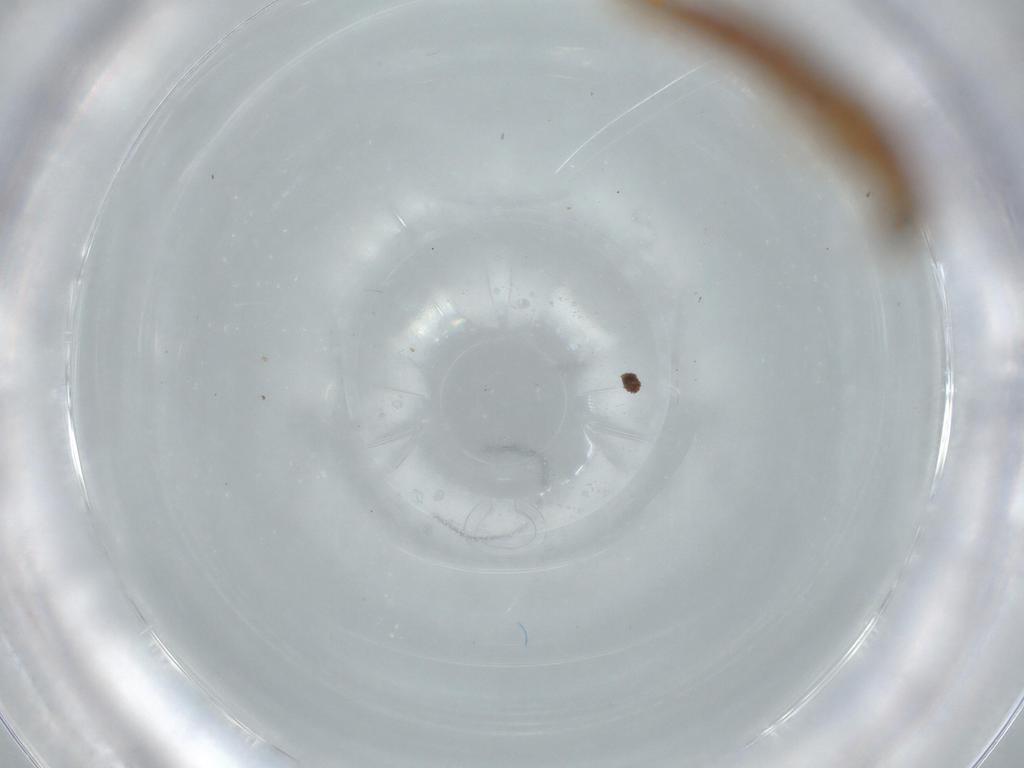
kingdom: Animalia
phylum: Arthropoda
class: Insecta
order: Coleoptera
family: Staphylinidae
